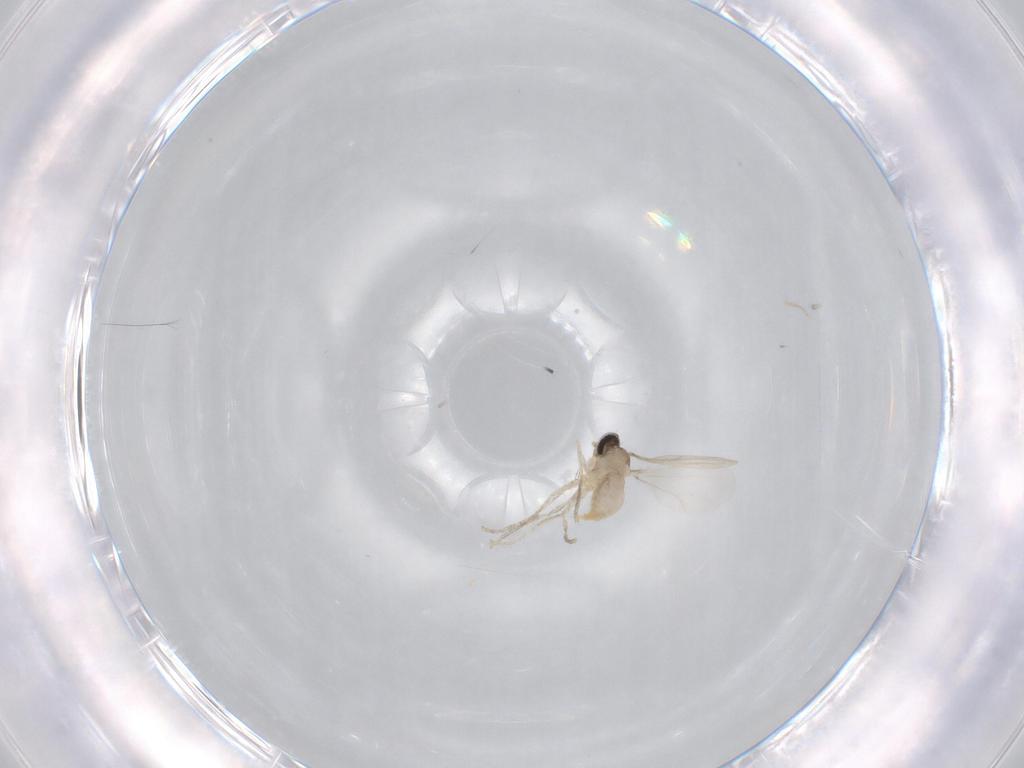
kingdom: Animalia
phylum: Arthropoda
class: Insecta
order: Diptera
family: Cecidomyiidae
